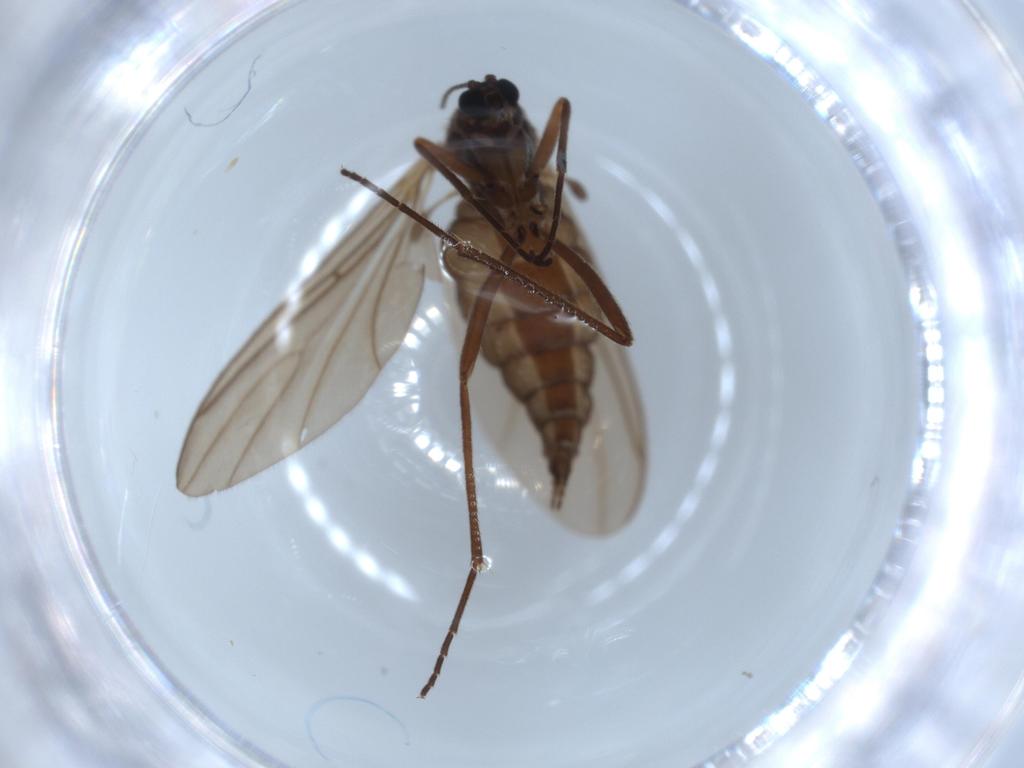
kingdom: Animalia
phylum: Arthropoda
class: Insecta
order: Diptera
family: Sciaridae
